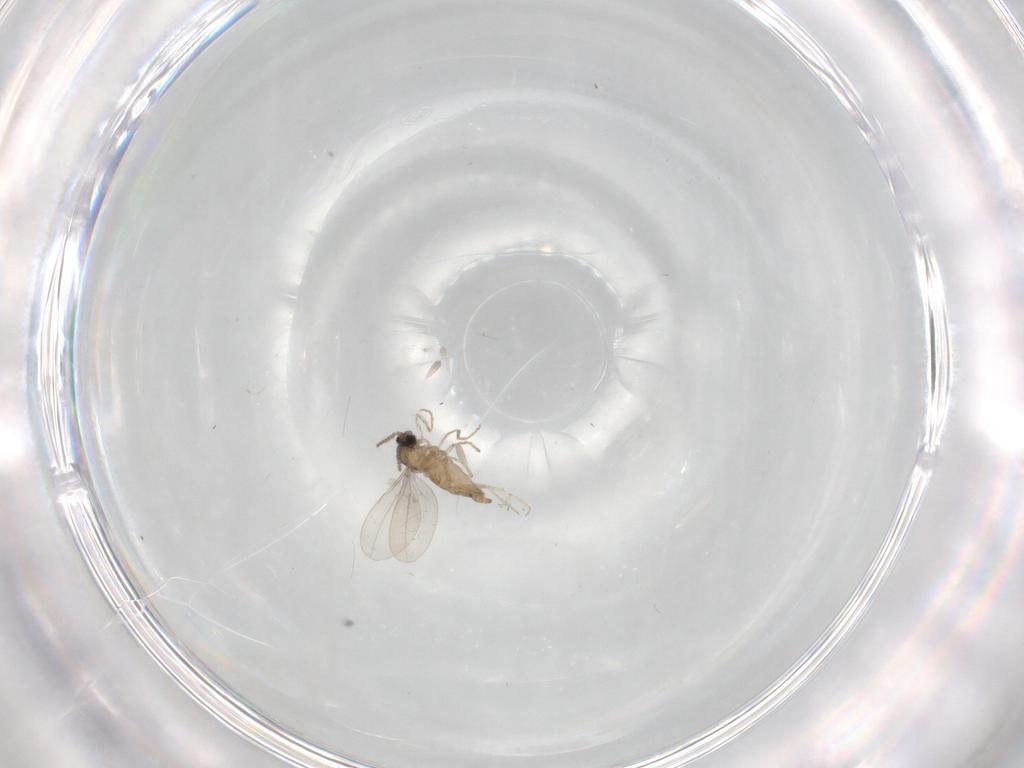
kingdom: Animalia
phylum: Arthropoda
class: Insecta
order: Diptera
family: Cecidomyiidae
